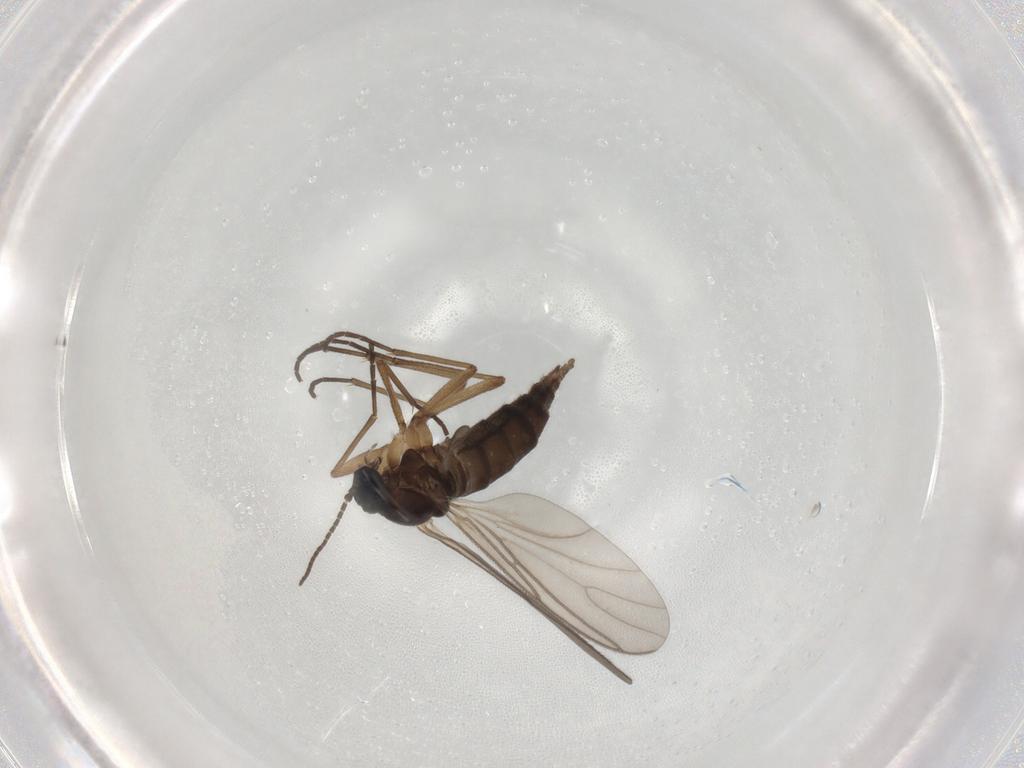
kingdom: Animalia
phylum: Arthropoda
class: Insecta
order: Diptera
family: Sciaridae
